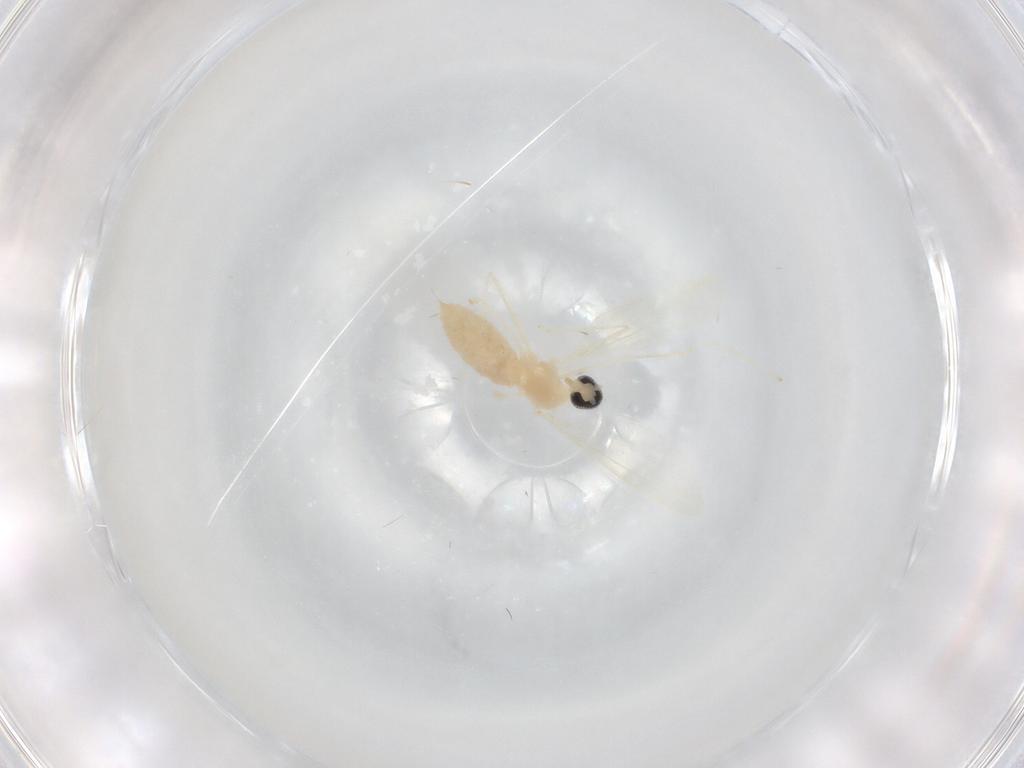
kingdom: Animalia
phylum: Arthropoda
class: Insecta
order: Diptera
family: Cecidomyiidae
